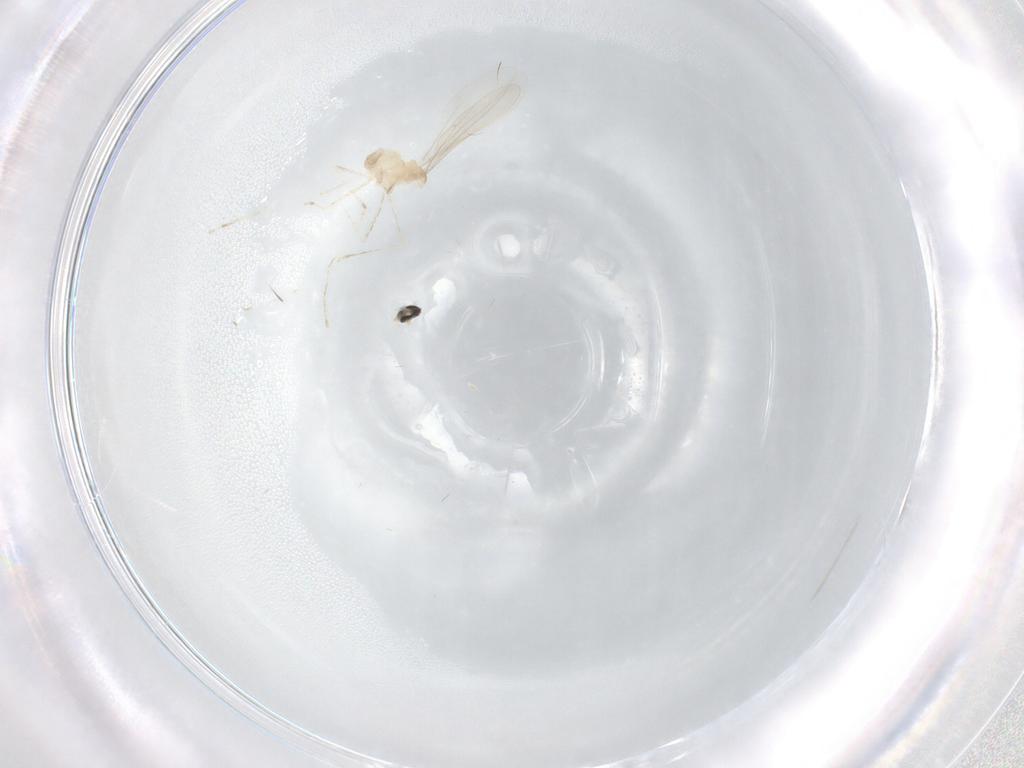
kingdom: Animalia
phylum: Arthropoda
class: Insecta
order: Diptera
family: Cecidomyiidae
